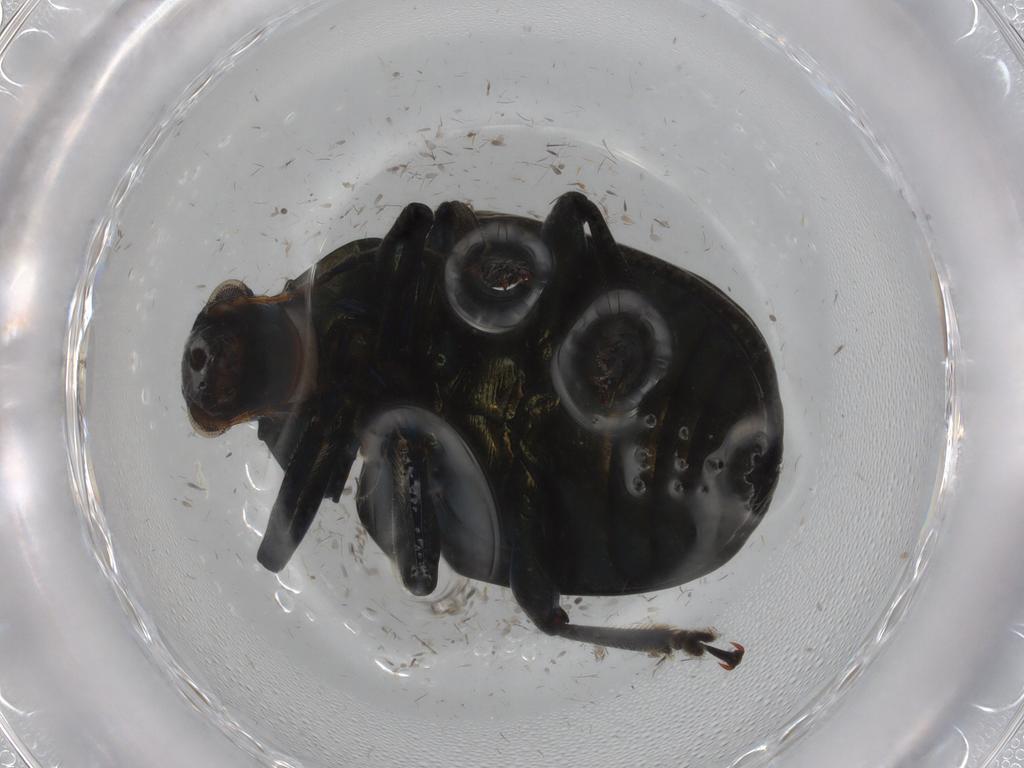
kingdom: Animalia
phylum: Arthropoda
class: Insecta
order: Coleoptera
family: Chrysomelidae
